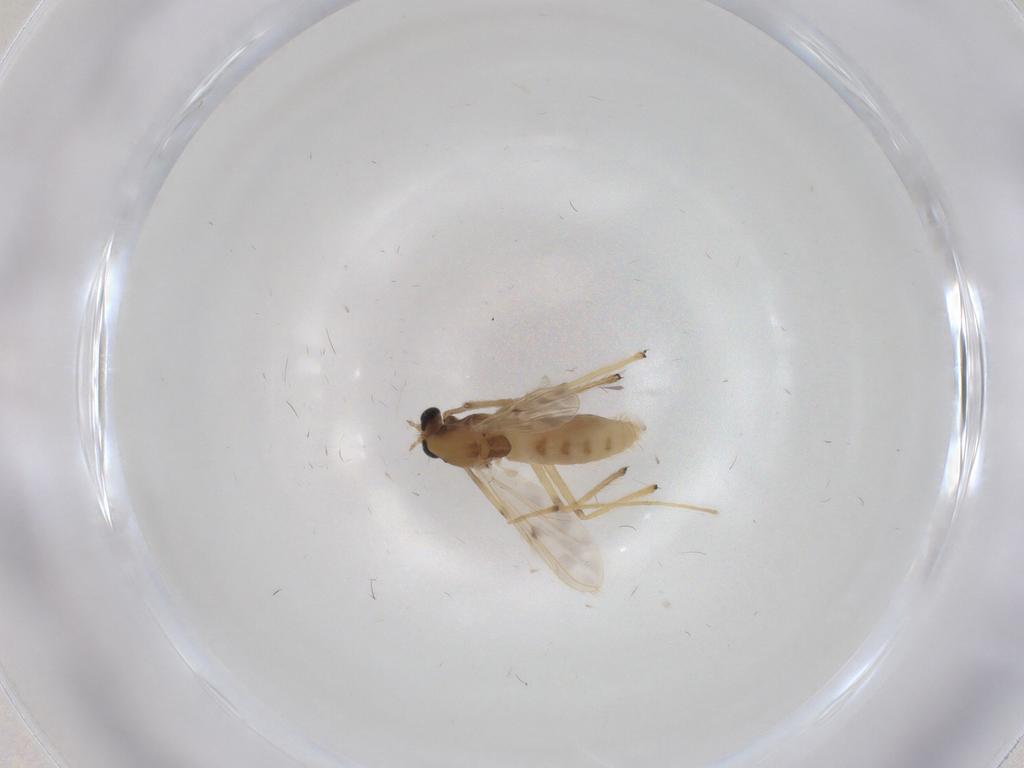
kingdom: Animalia
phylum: Arthropoda
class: Insecta
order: Diptera
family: Chironomidae
